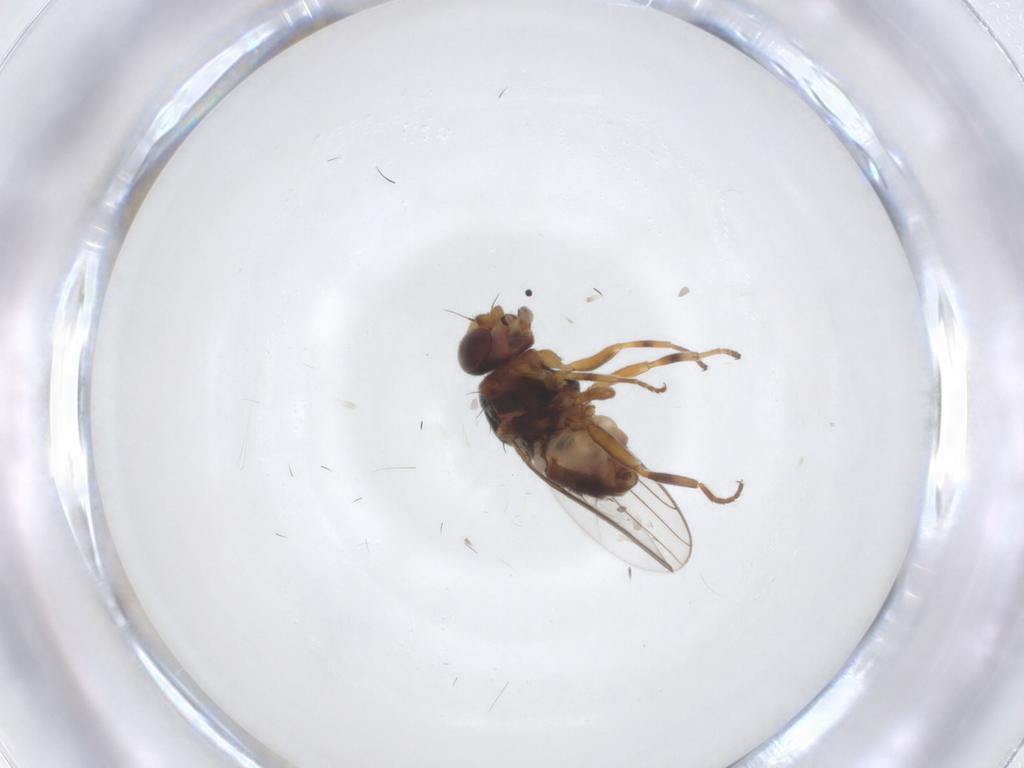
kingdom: Animalia
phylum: Arthropoda
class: Insecta
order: Diptera
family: Chloropidae
